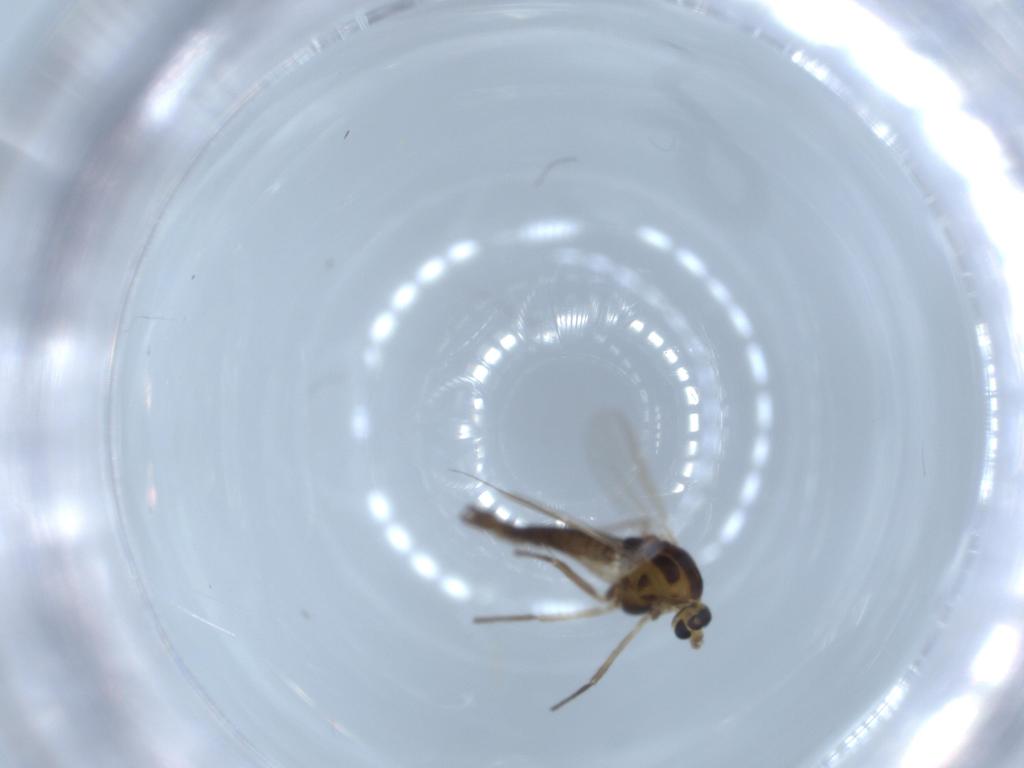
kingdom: Animalia
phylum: Arthropoda
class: Insecta
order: Diptera
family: Chironomidae
